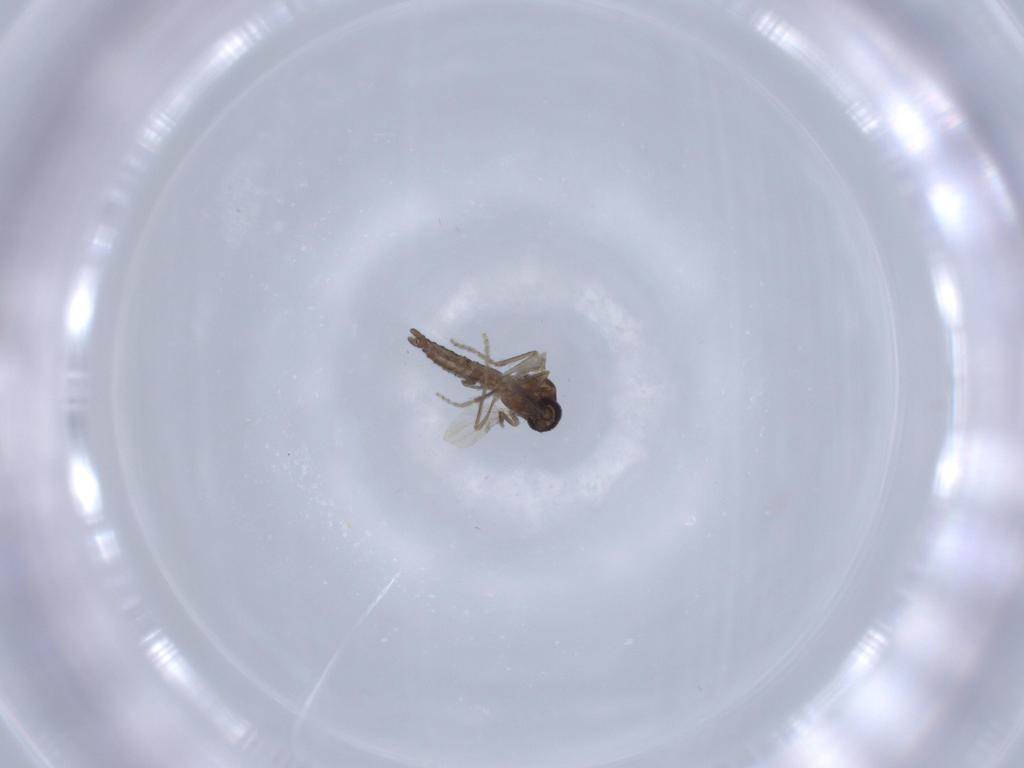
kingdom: Animalia
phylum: Arthropoda
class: Insecta
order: Diptera
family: Ceratopogonidae
